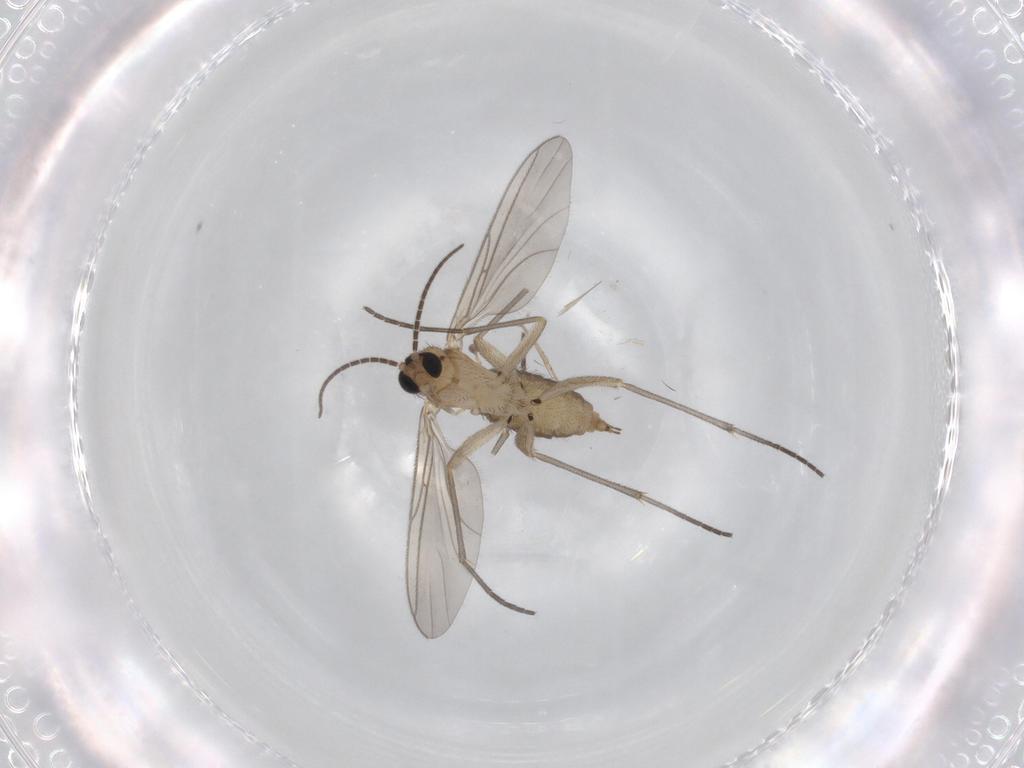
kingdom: Animalia
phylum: Arthropoda
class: Insecta
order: Diptera
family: Sciaridae
